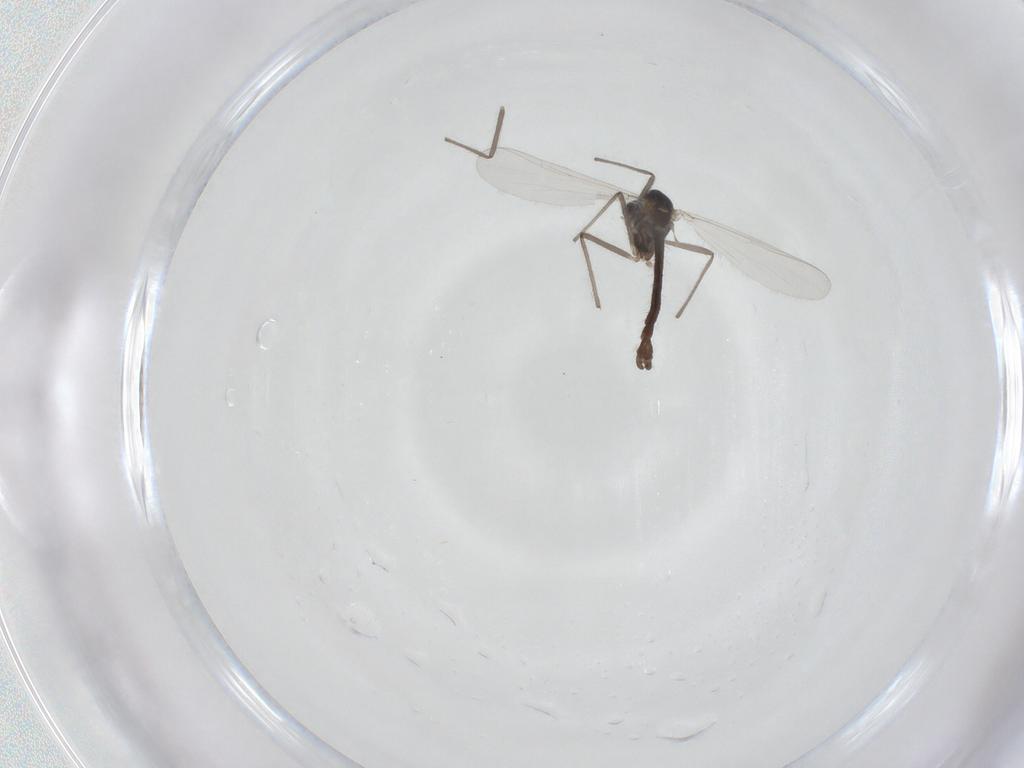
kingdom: Animalia
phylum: Arthropoda
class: Insecta
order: Diptera
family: Chironomidae
